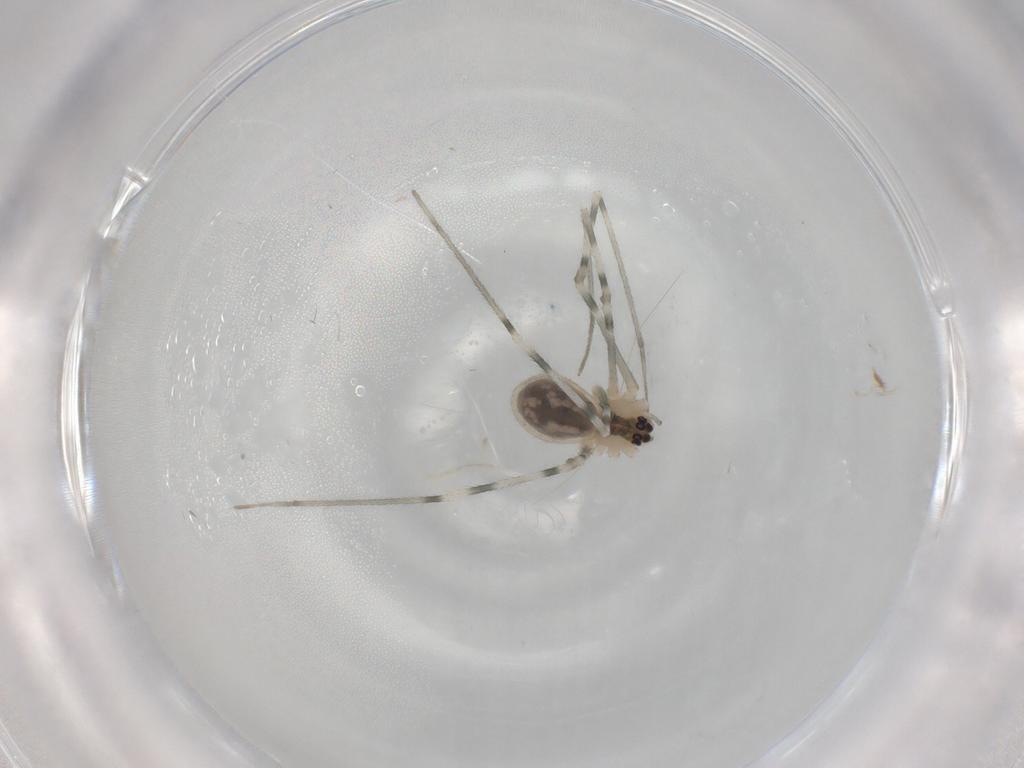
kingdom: Animalia
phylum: Arthropoda
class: Arachnida
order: Araneae
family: Pholcidae
